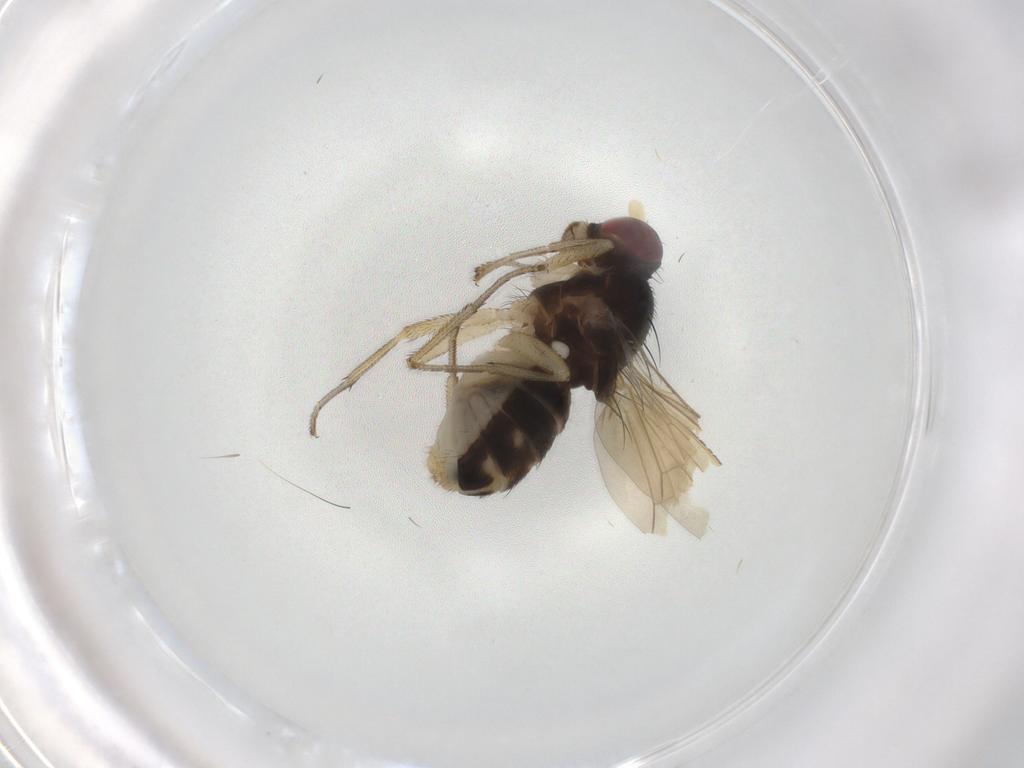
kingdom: Animalia
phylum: Arthropoda
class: Insecta
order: Diptera
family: Lauxaniidae
